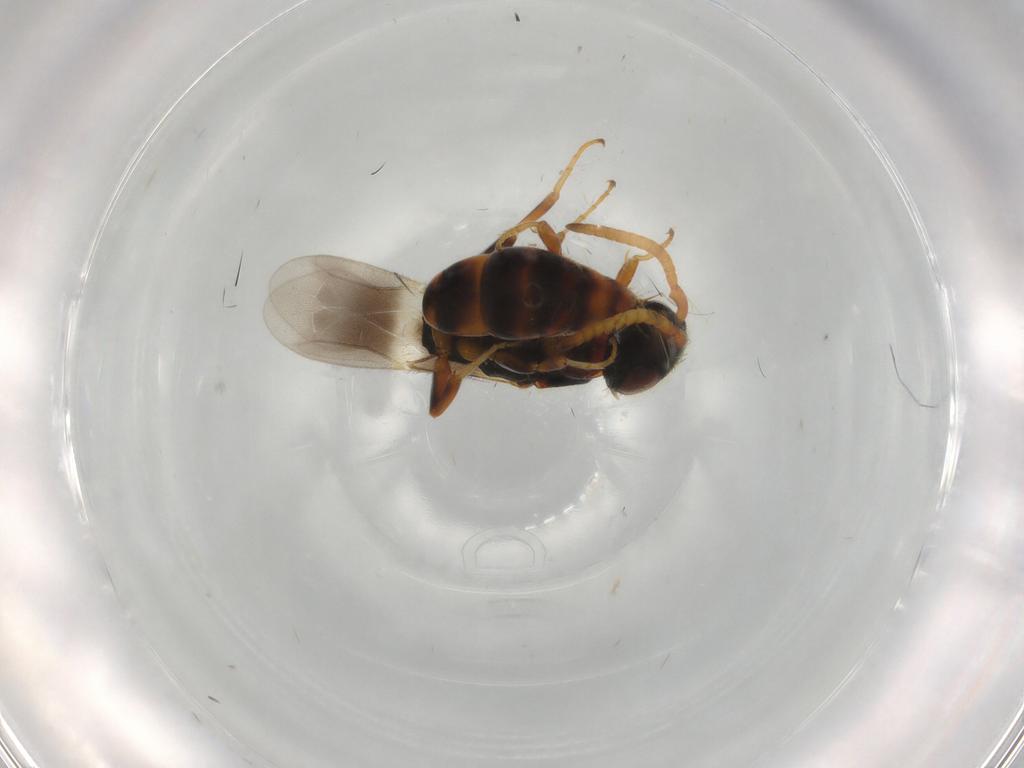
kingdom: Animalia
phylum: Arthropoda
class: Insecta
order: Hymenoptera
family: Bethylidae
